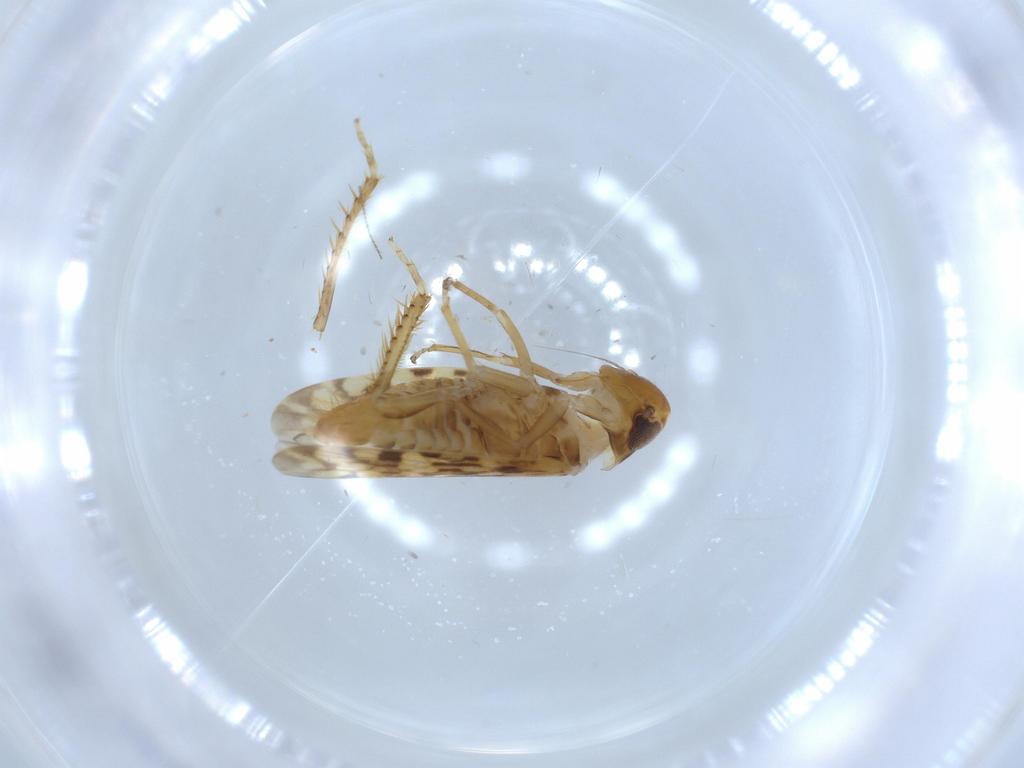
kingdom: Animalia
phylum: Arthropoda
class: Insecta
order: Hemiptera
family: Cicadellidae
